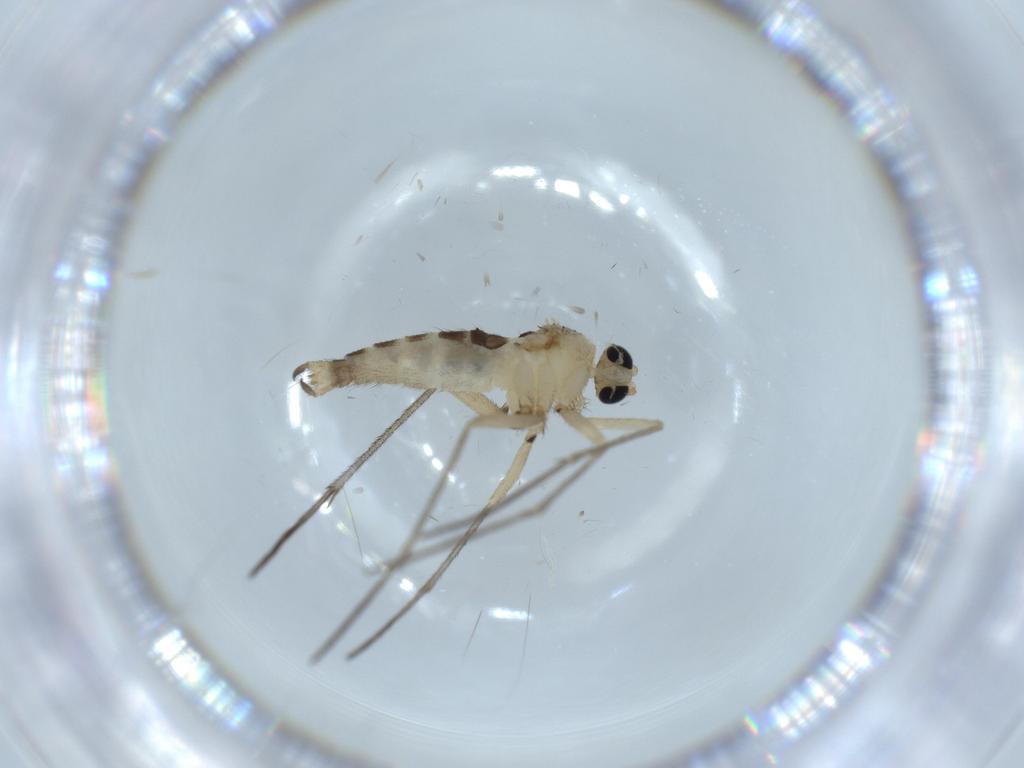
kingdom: Animalia
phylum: Arthropoda
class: Insecta
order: Diptera
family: Sciaridae
